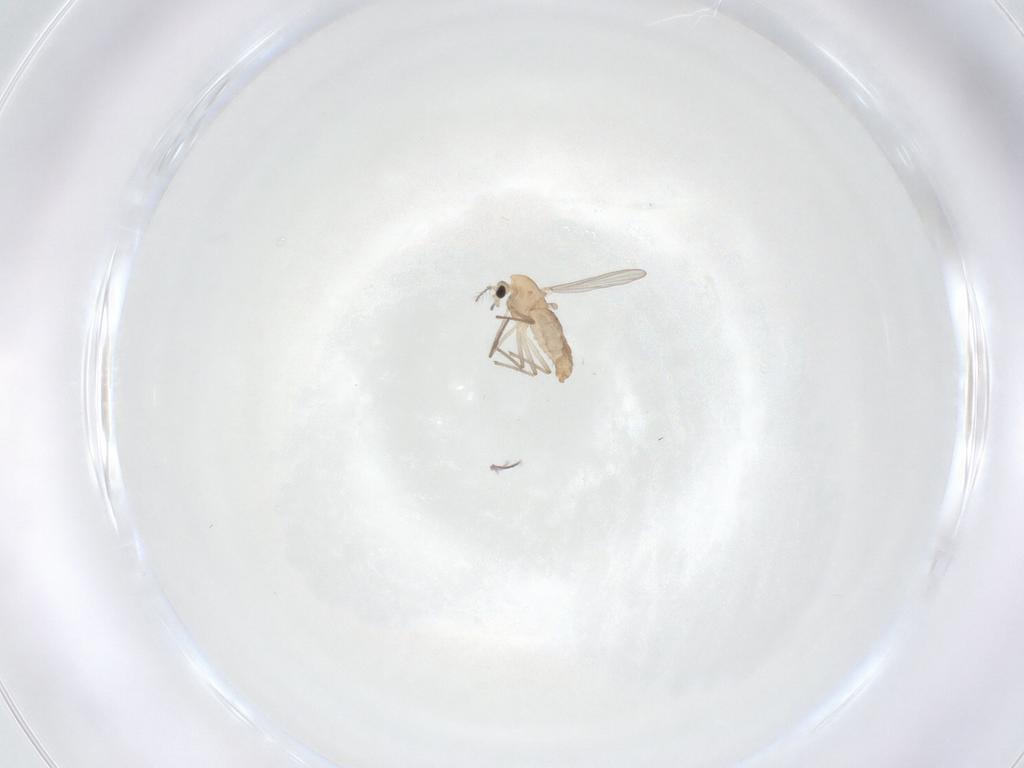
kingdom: Animalia
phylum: Arthropoda
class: Insecta
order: Diptera
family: Chironomidae
